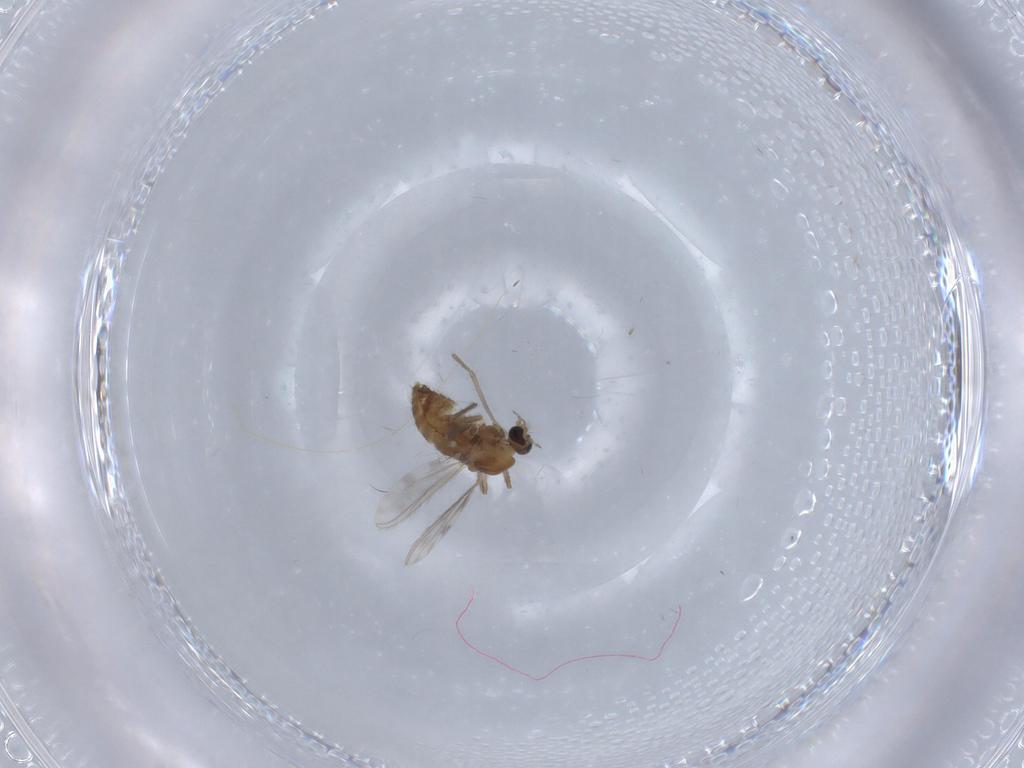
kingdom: Animalia
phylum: Arthropoda
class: Insecta
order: Diptera
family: Chironomidae
